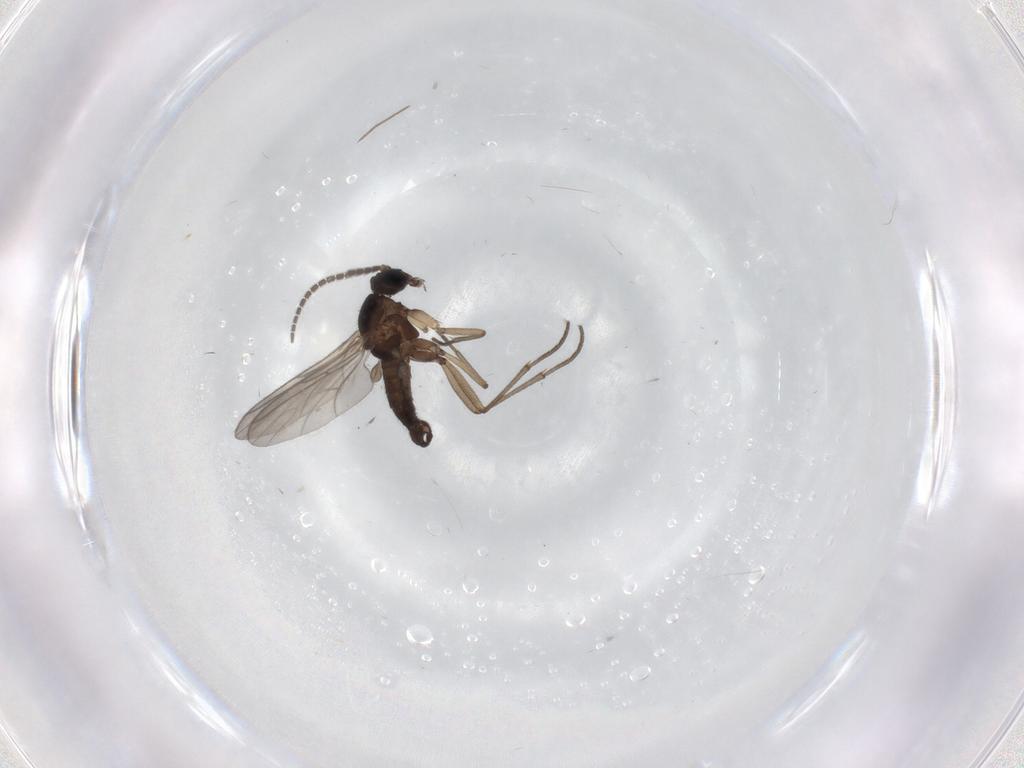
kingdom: Animalia
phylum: Arthropoda
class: Insecta
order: Diptera
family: Sciaridae
